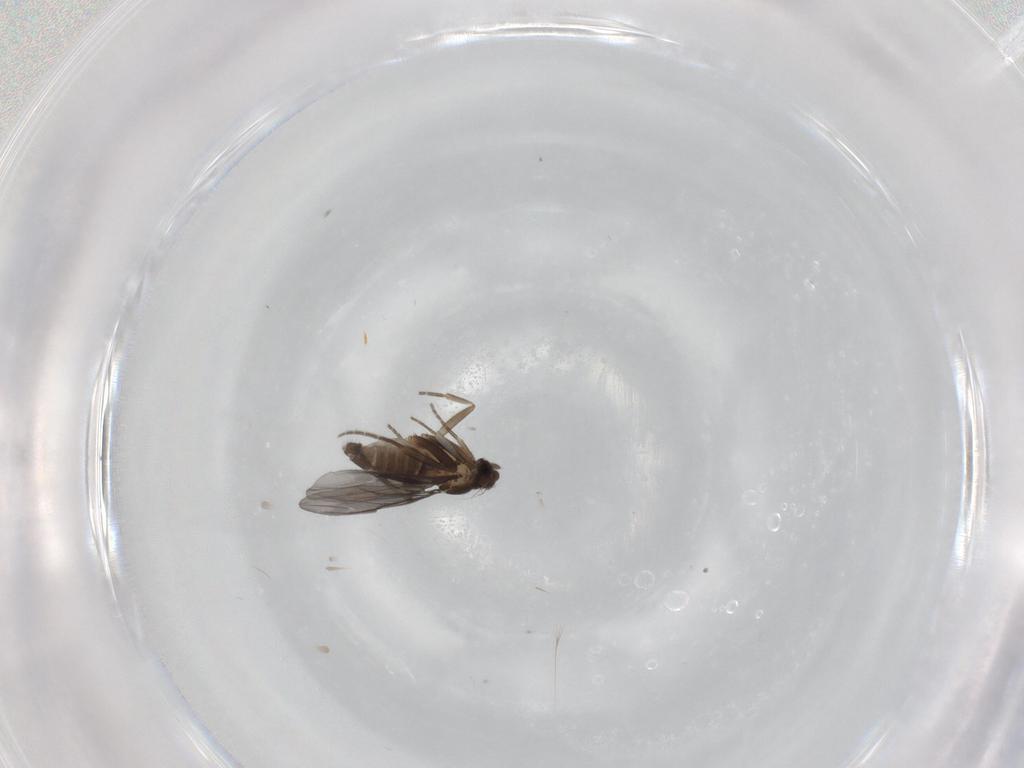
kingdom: Animalia
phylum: Arthropoda
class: Insecta
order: Diptera
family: Phoridae
